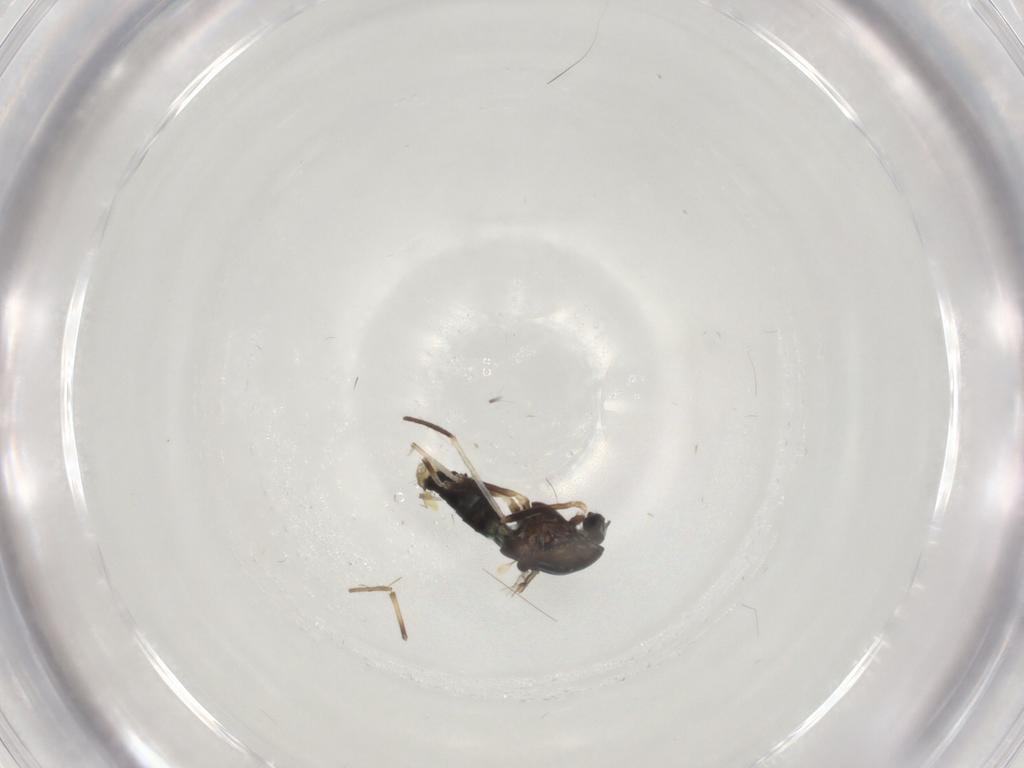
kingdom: Animalia
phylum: Arthropoda
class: Insecta
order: Diptera
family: Chironomidae
